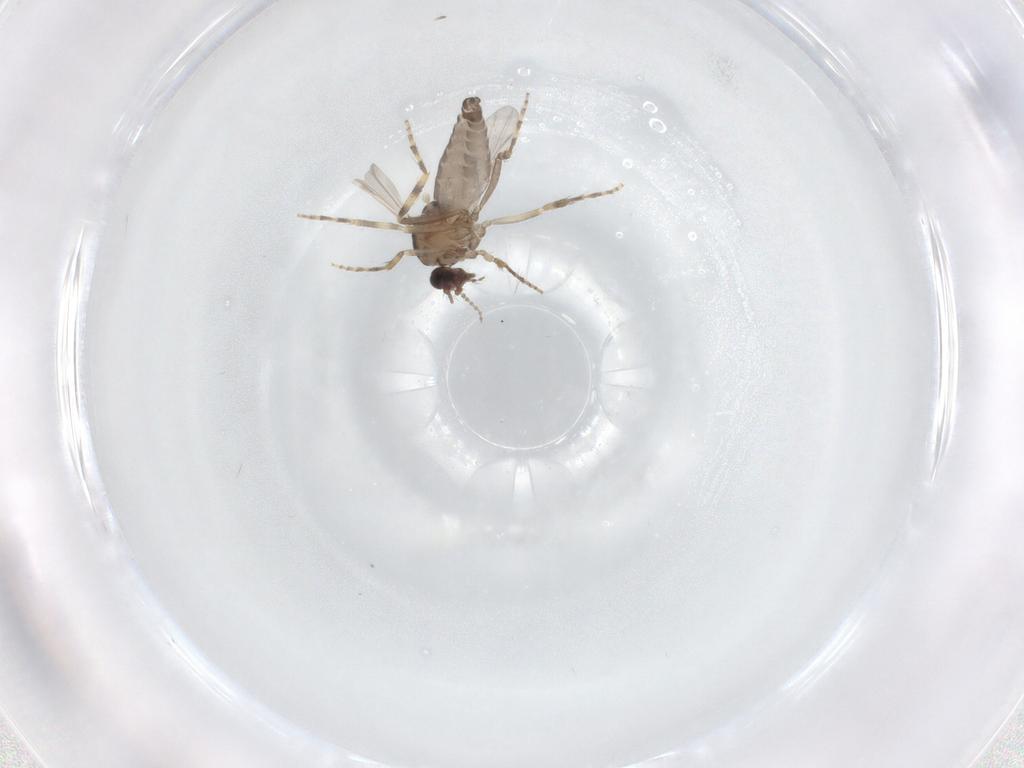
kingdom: Animalia
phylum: Arthropoda
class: Insecta
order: Diptera
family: Ceratopogonidae
